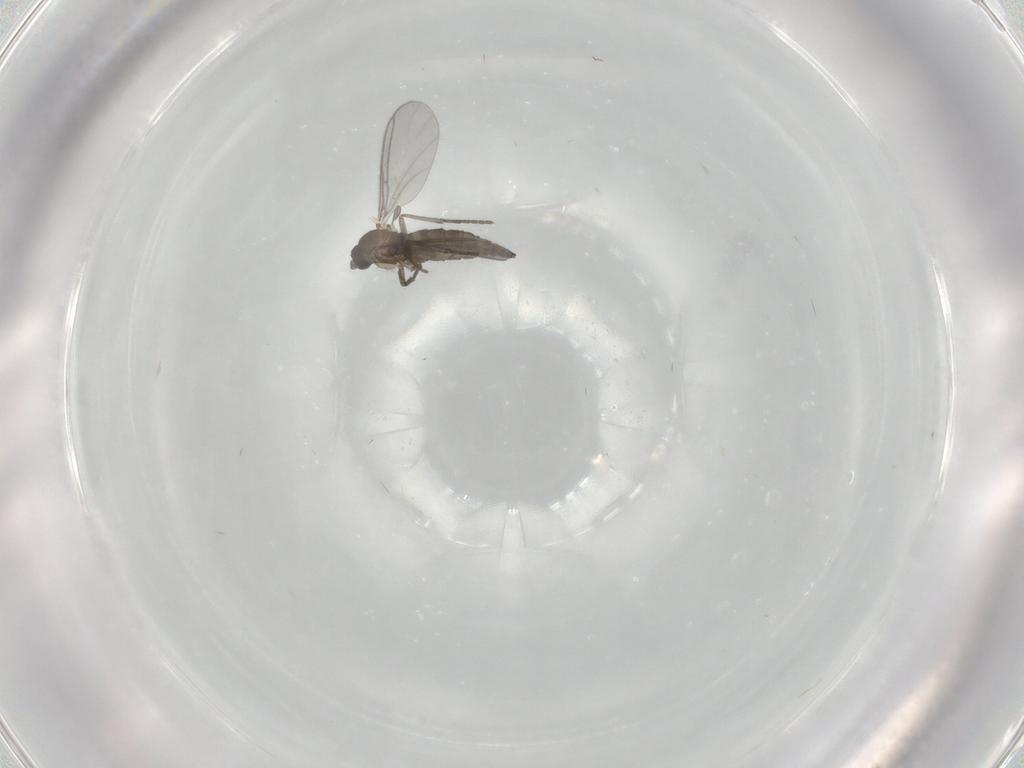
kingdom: Animalia
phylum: Arthropoda
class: Insecta
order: Diptera
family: Sciaridae
